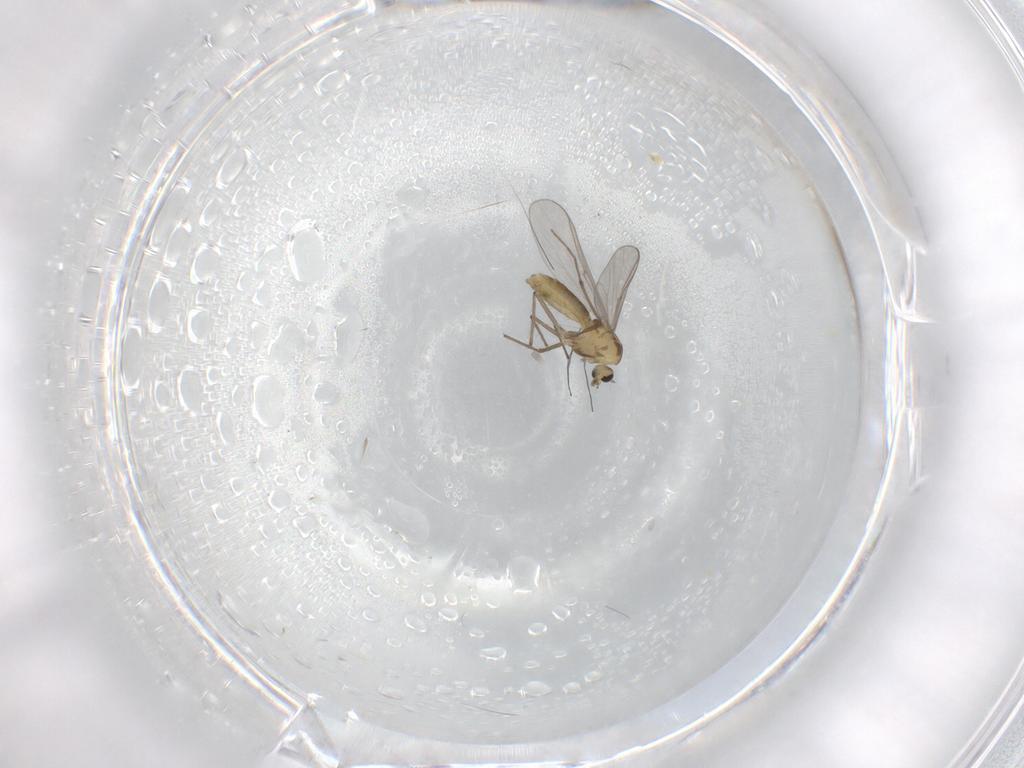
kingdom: Animalia
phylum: Arthropoda
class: Insecta
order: Diptera
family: Chironomidae
